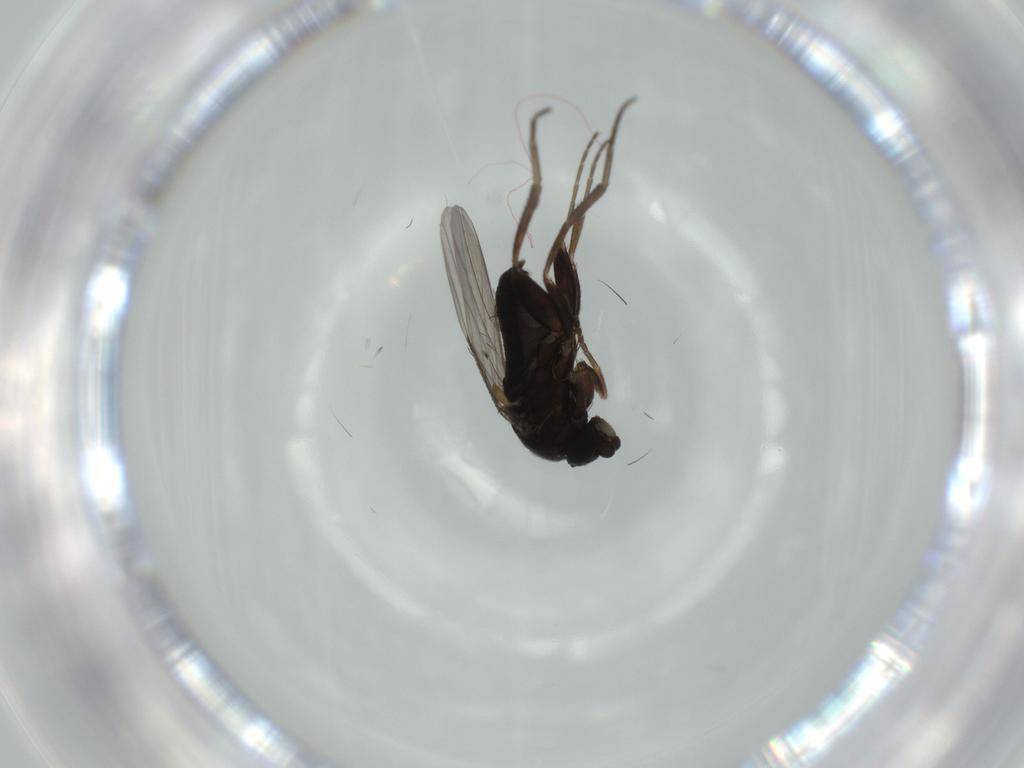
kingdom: Animalia
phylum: Arthropoda
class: Insecta
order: Diptera
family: Phoridae
